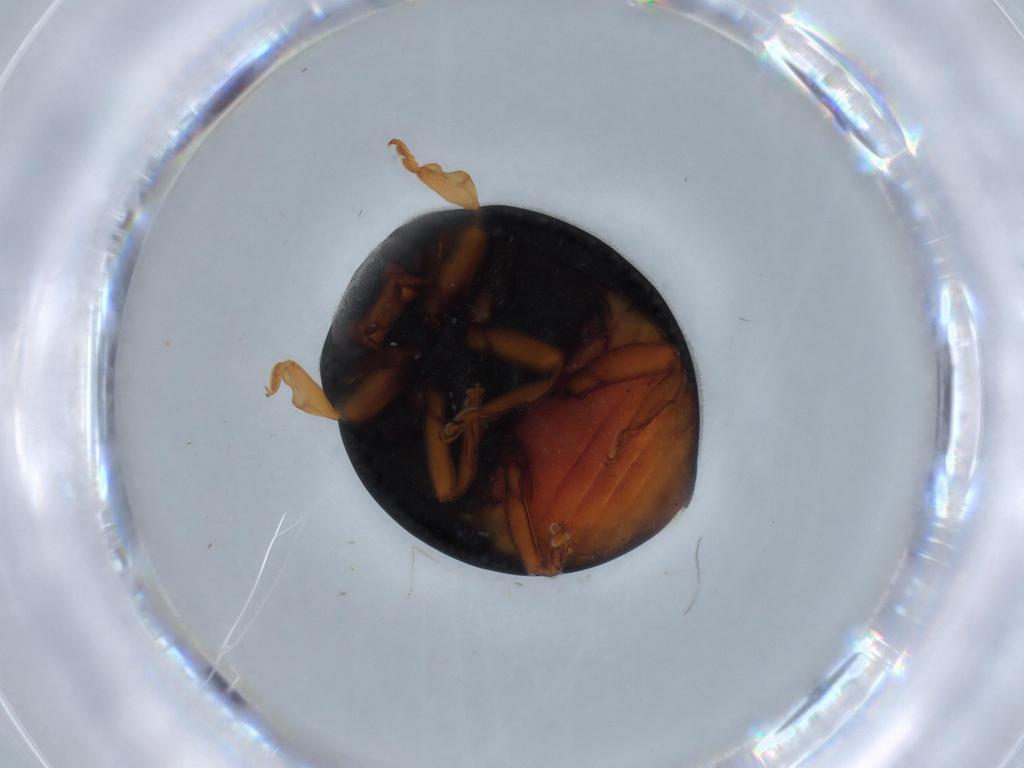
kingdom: Animalia
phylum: Arthropoda
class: Insecta
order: Coleoptera
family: Coccinellidae
